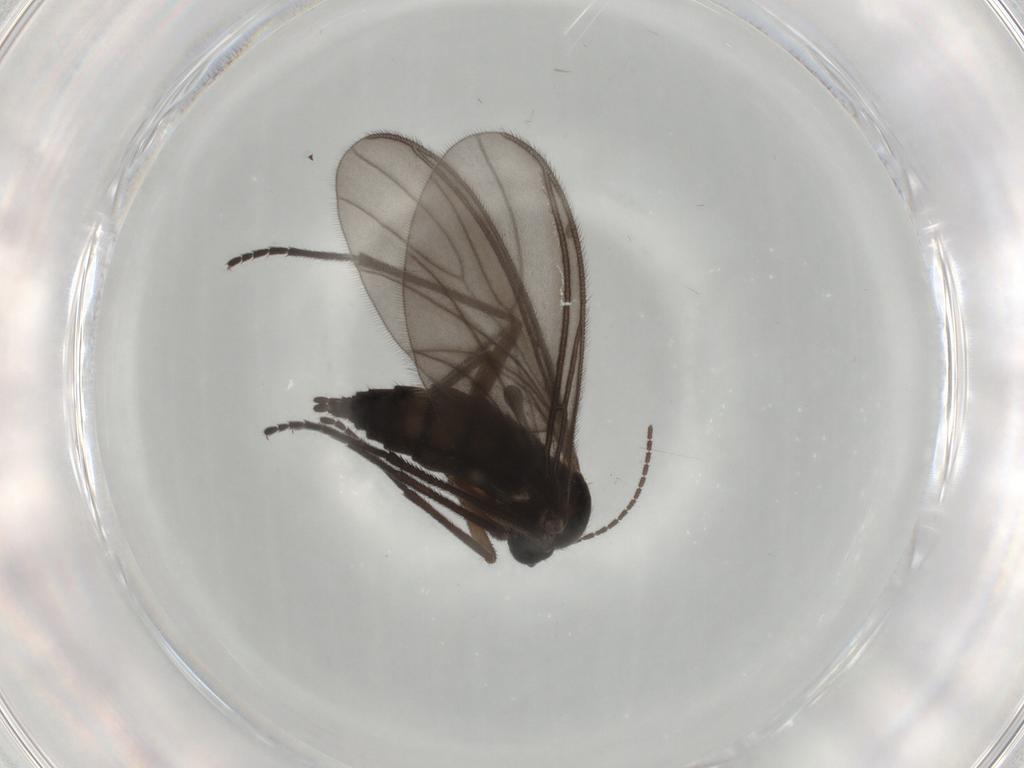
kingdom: Animalia
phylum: Arthropoda
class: Insecta
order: Diptera
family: Sciaridae
